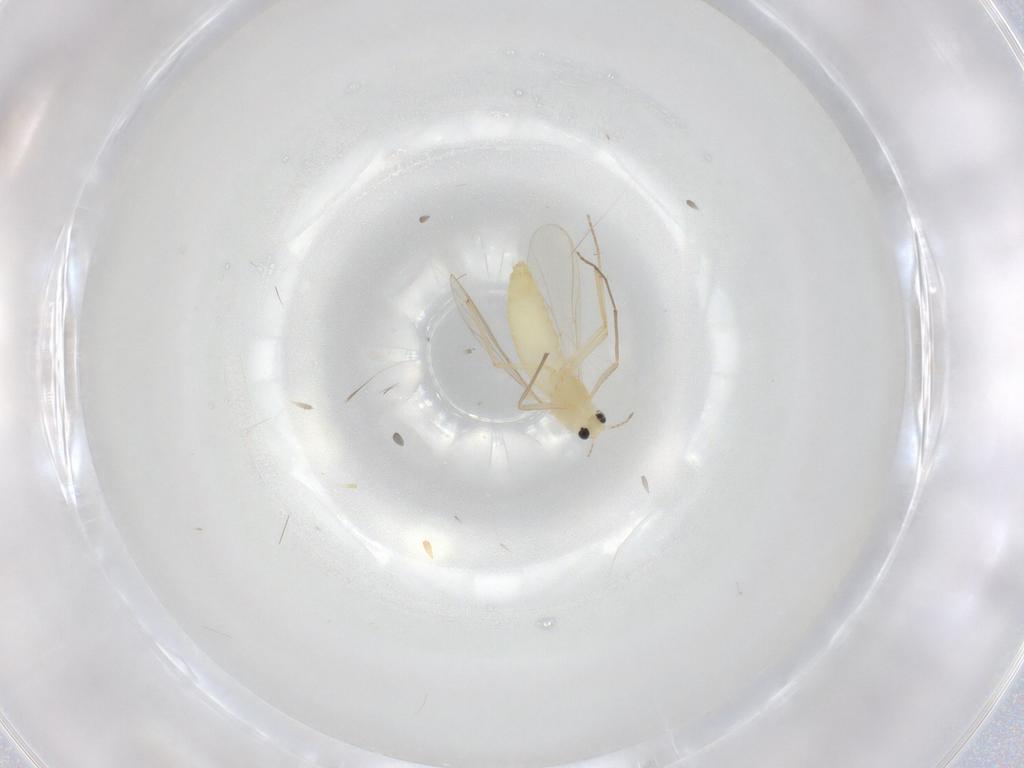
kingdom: Animalia
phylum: Arthropoda
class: Insecta
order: Diptera
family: Chironomidae
